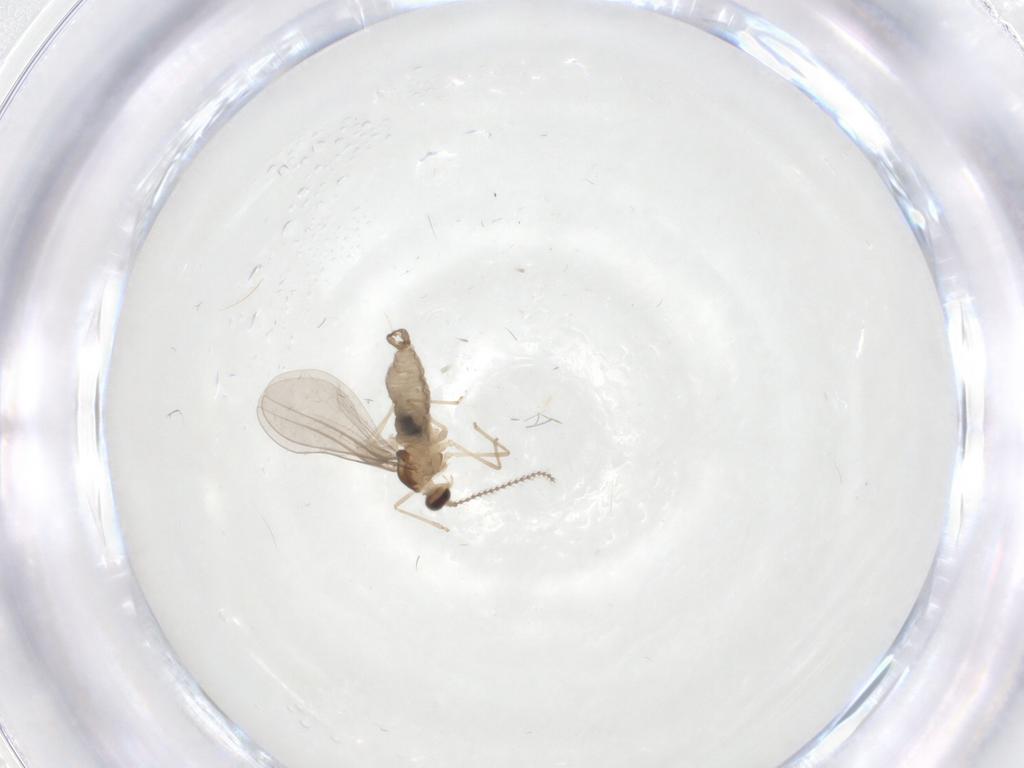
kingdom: Animalia
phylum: Arthropoda
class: Insecta
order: Diptera
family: Cecidomyiidae
